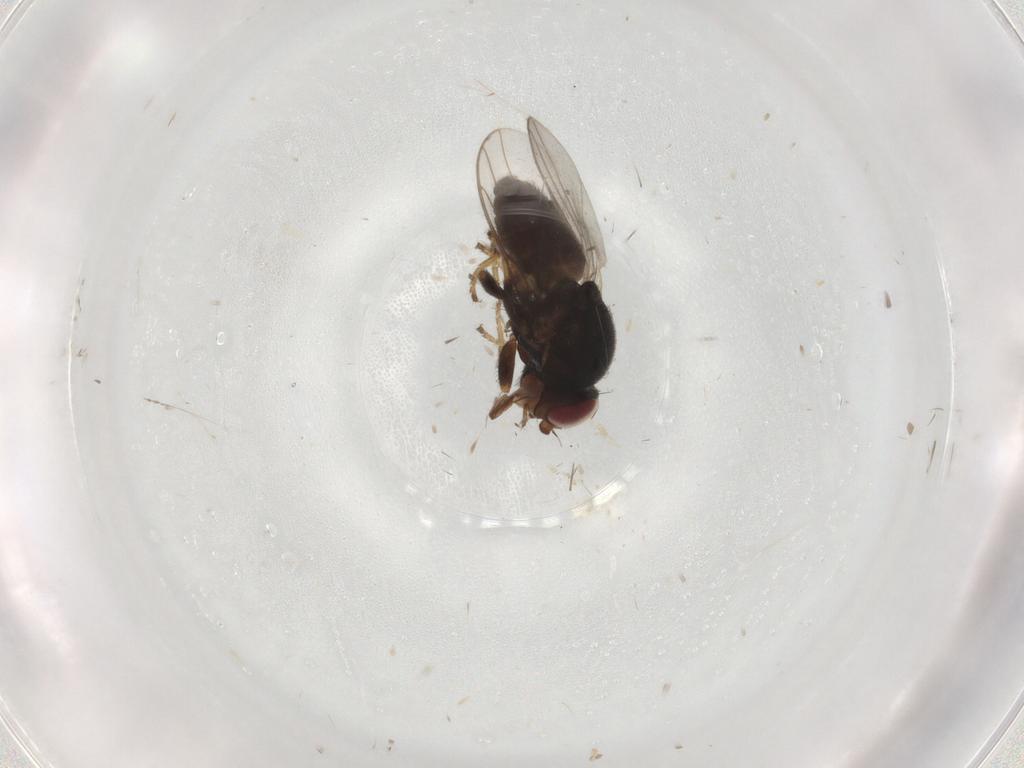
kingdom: Animalia
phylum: Arthropoda
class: Insecta
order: Diptera
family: Chloropidae
